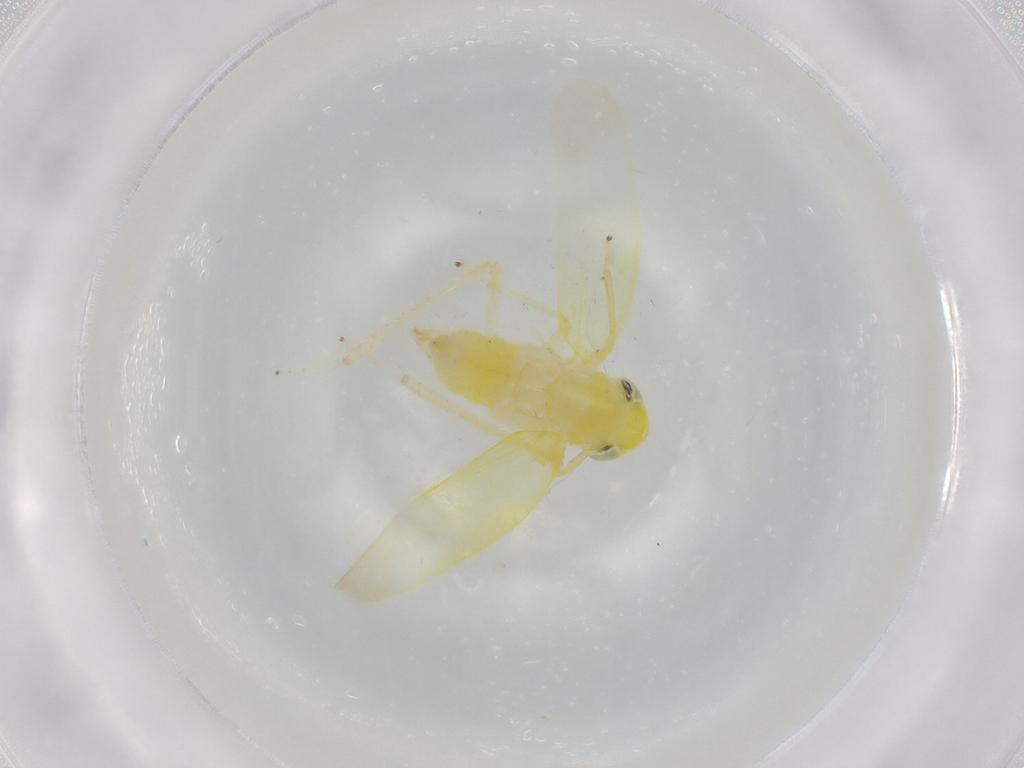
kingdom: Animalia
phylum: Arthropoda
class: Insecta
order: Hemiptera
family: Cicadellidae
